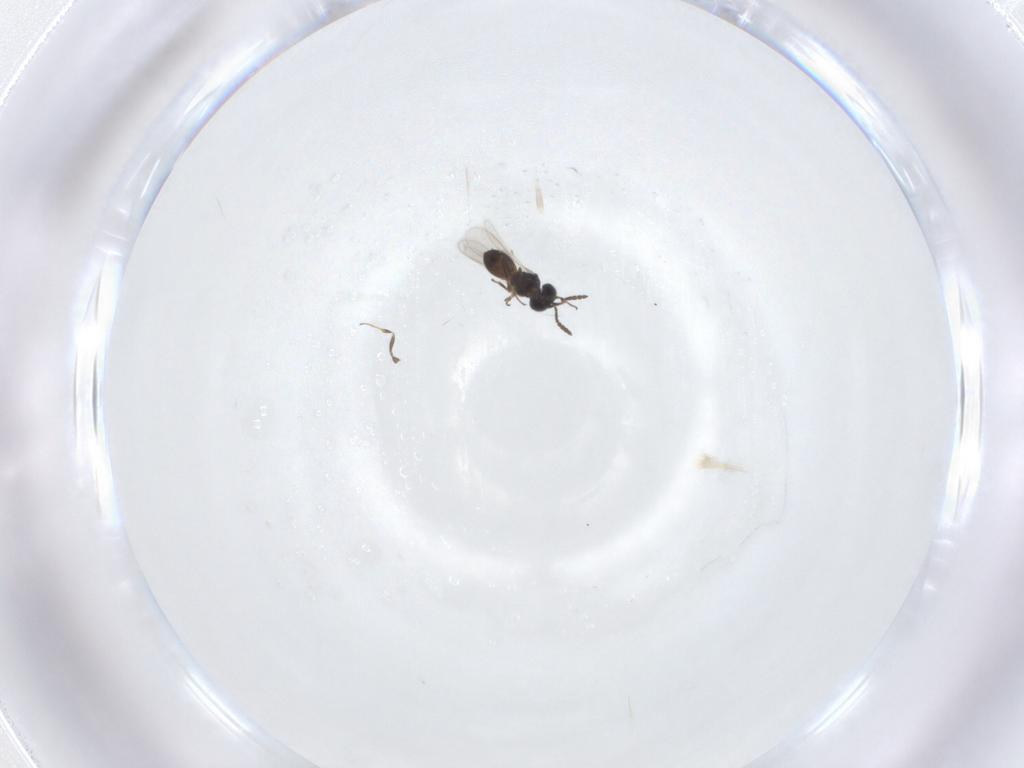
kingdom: Animalia
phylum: Arthropoda
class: Insecta
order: Hymenoptera
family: Scelionidae
